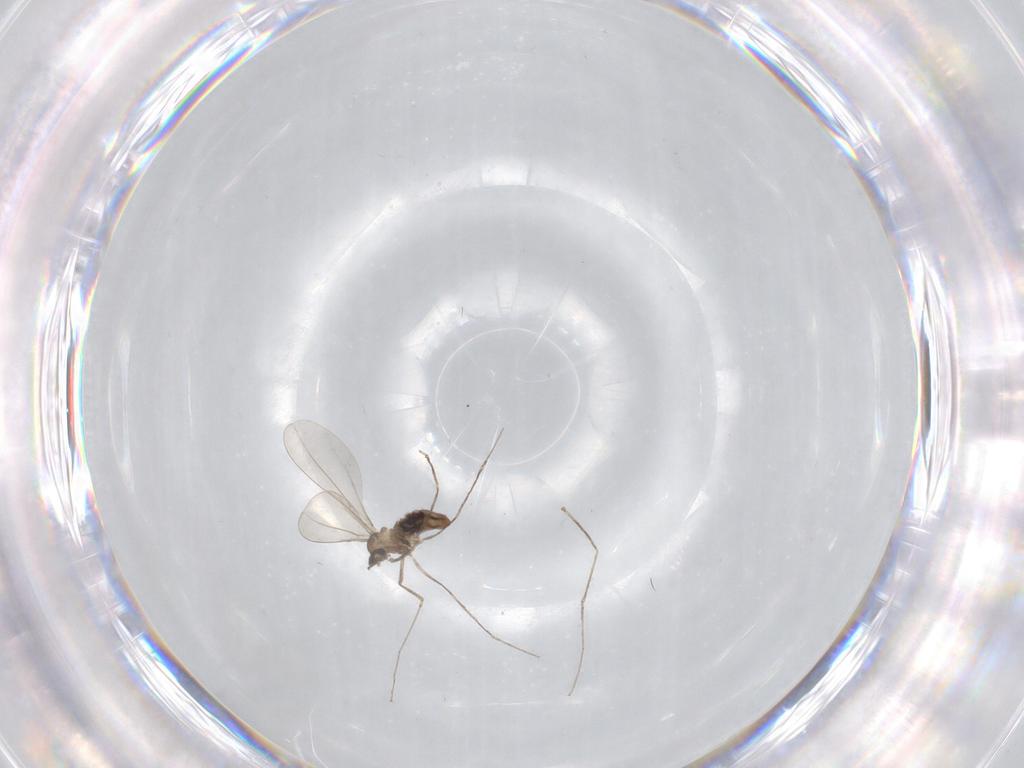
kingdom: Animalia
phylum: Arthropoda
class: Insecta
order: Diptera
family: Cecidomyiidae
